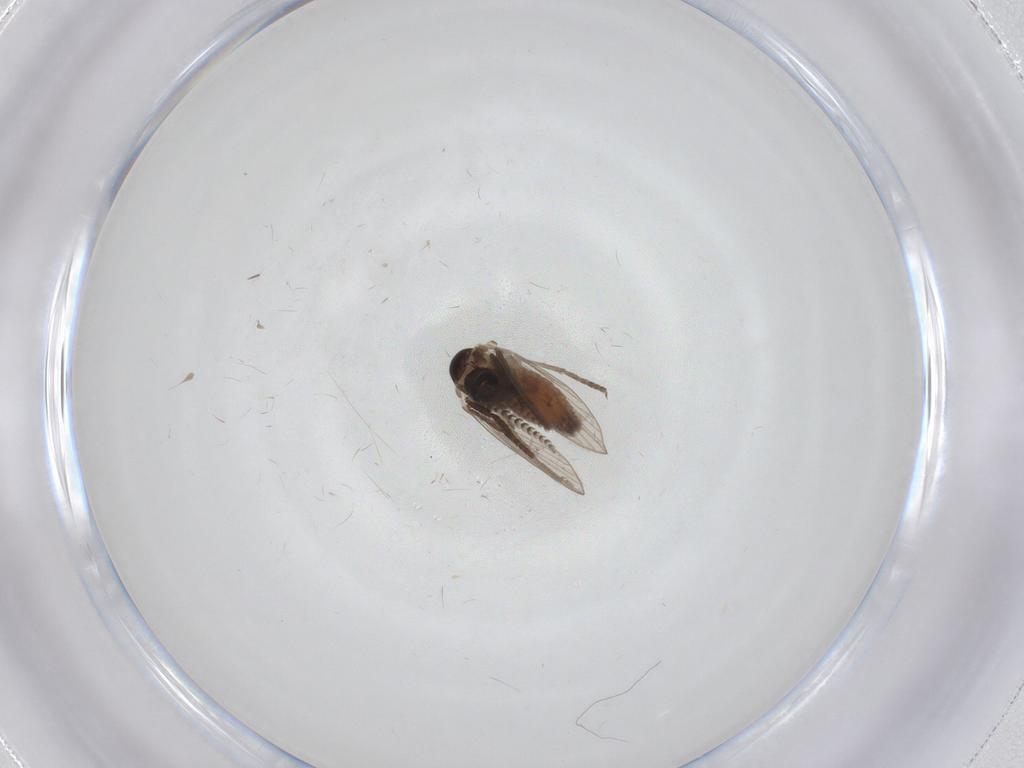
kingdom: Animalia
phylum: Arthropoda
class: Insecta
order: Diptera
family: Psychodidae
